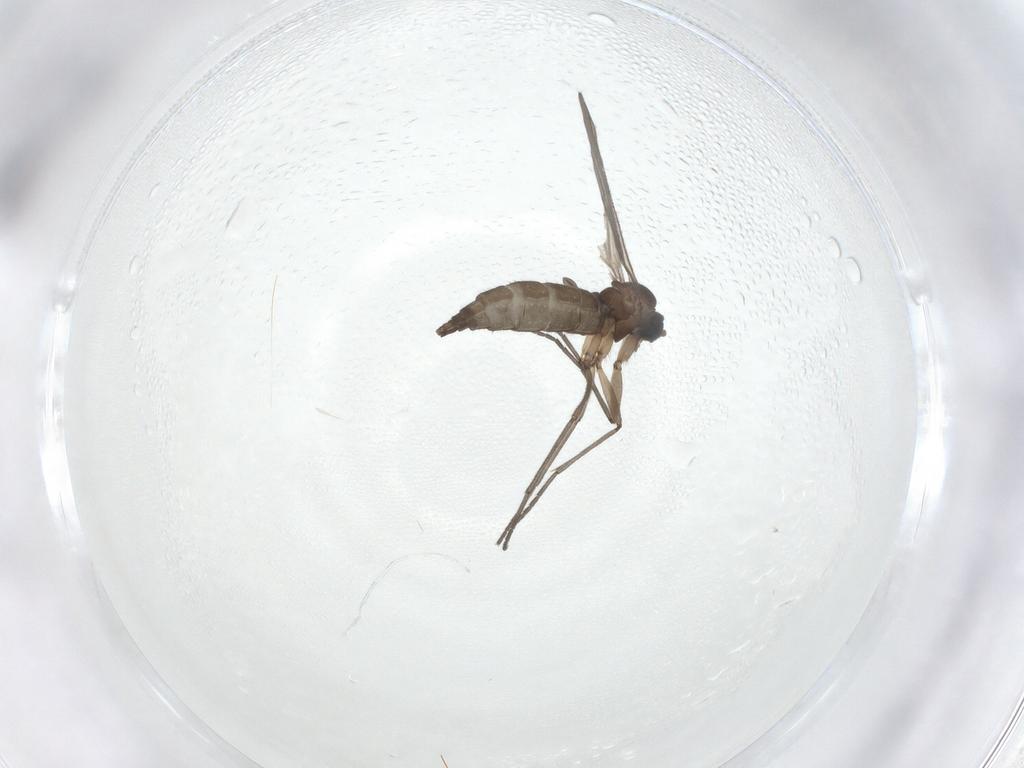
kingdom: Animalia
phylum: Arthropoda
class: Insecta
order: Diptera
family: Sciaridae
